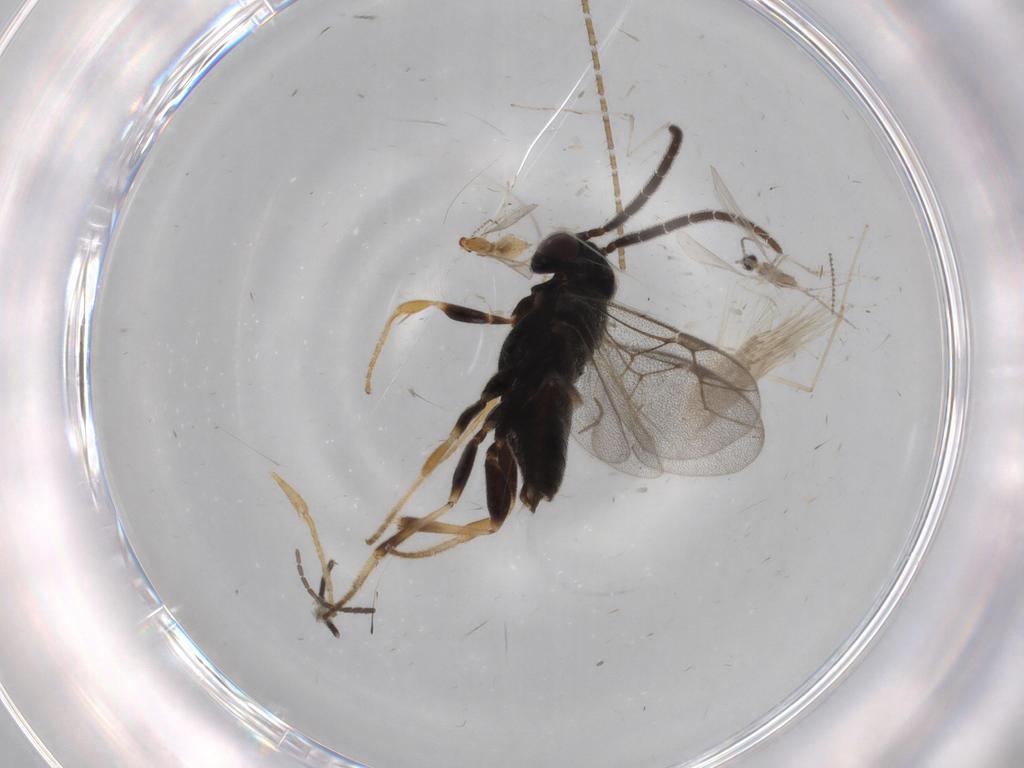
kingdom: Animalia
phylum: Arthropoda
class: Insecta
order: Hymenoptera
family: Dryinidae
